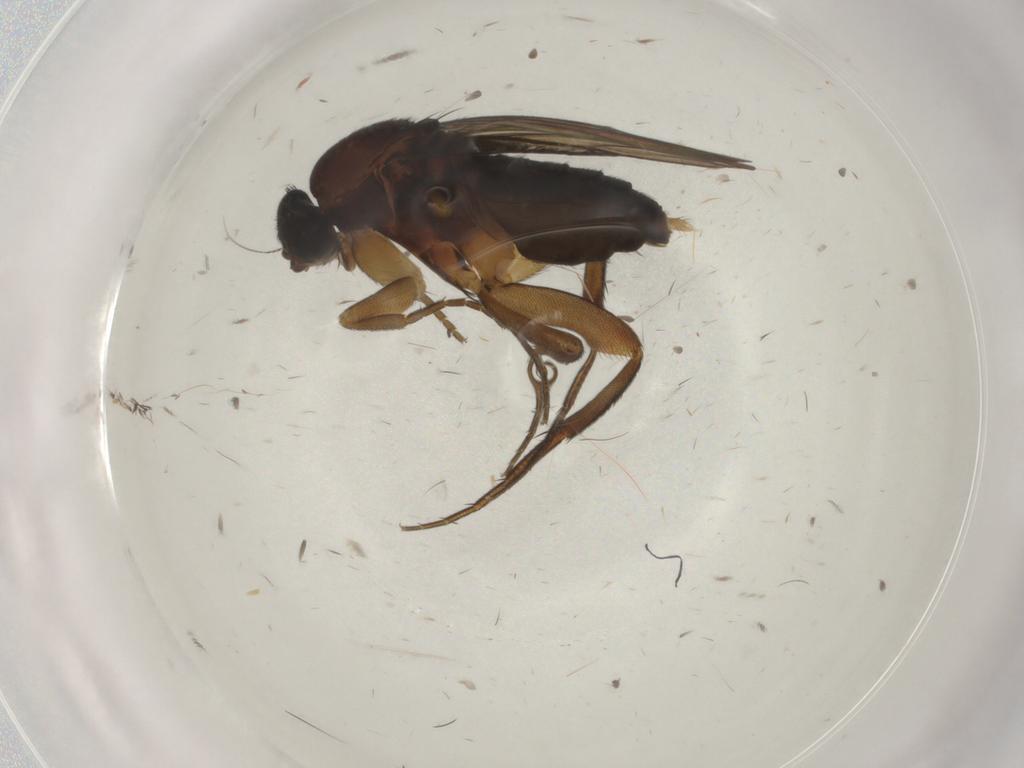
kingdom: Animalia
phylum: Arthropoda
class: Insecta
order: Diptera
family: Phoridae
